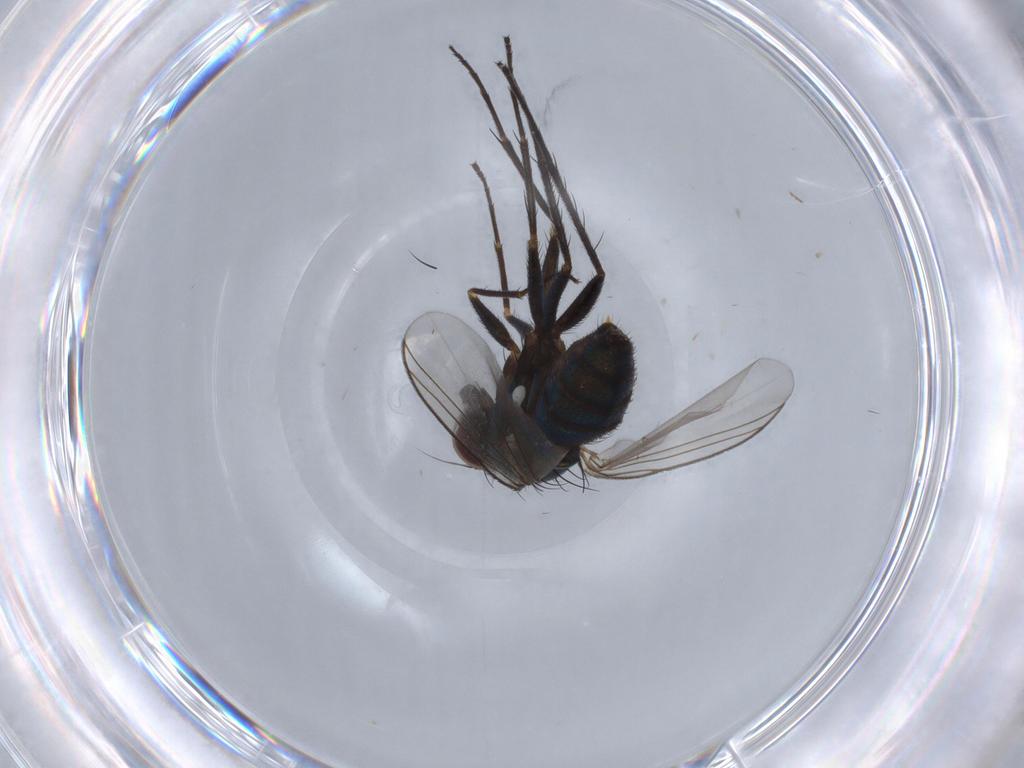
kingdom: Animalia
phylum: Arthropoda
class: Insecta
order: Diptera
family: Dolichopodidae
